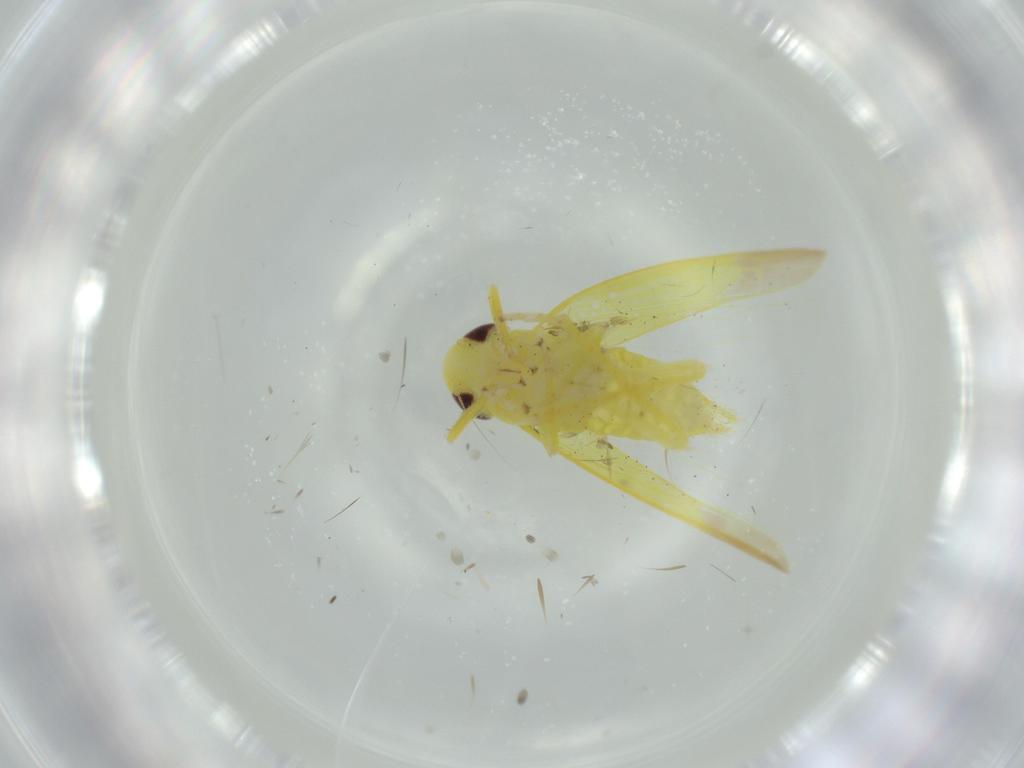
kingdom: Animalia
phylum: Arthropoda
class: Insecta
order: Hemiptera
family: Cicadellidae
